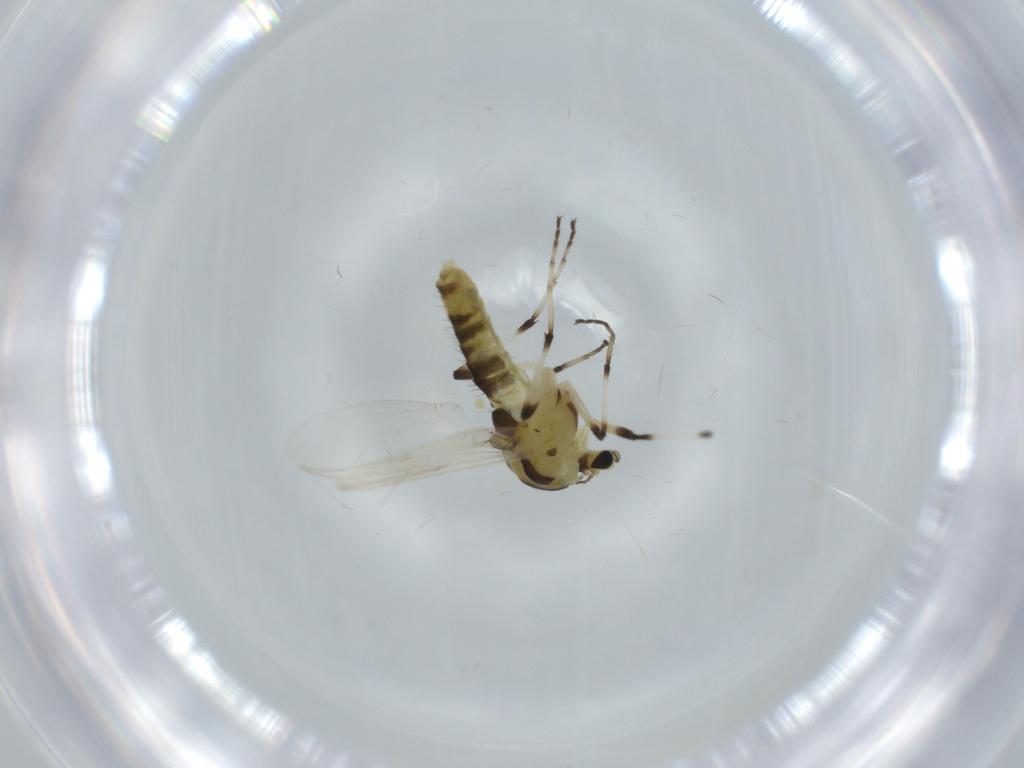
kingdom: Animalia
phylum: Arthropoda
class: Insecta
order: Diptera
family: Chironomidae
